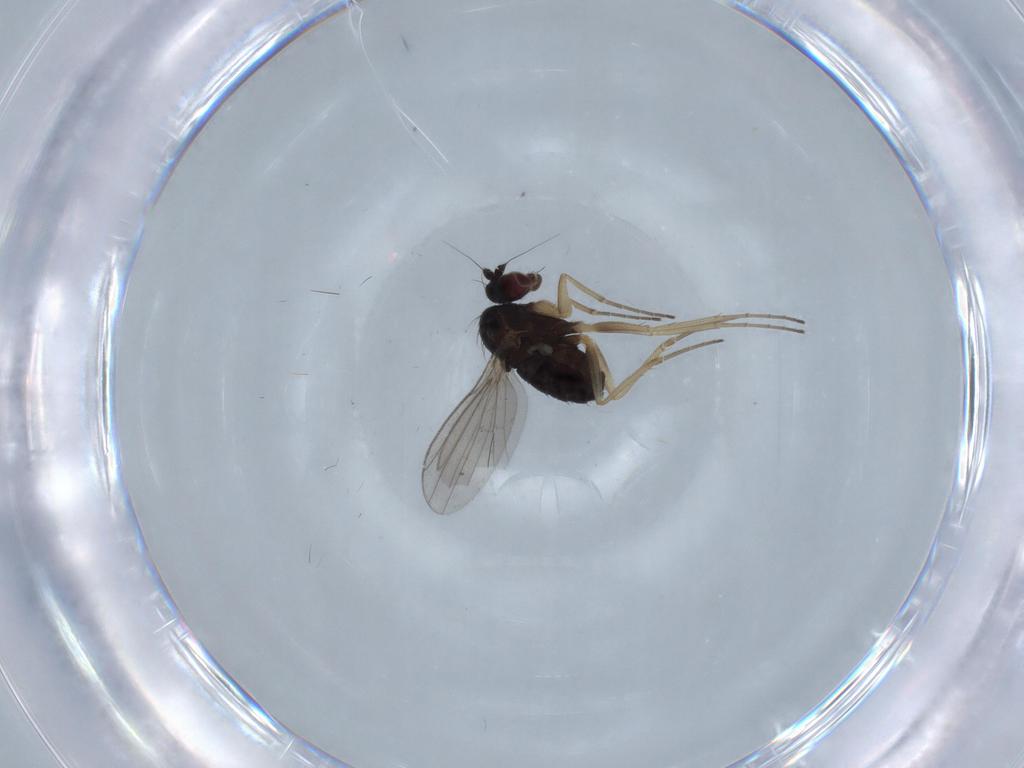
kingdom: Animalia
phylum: Arthropoda
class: Insecta
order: Diptera
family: Dolichopodidae
